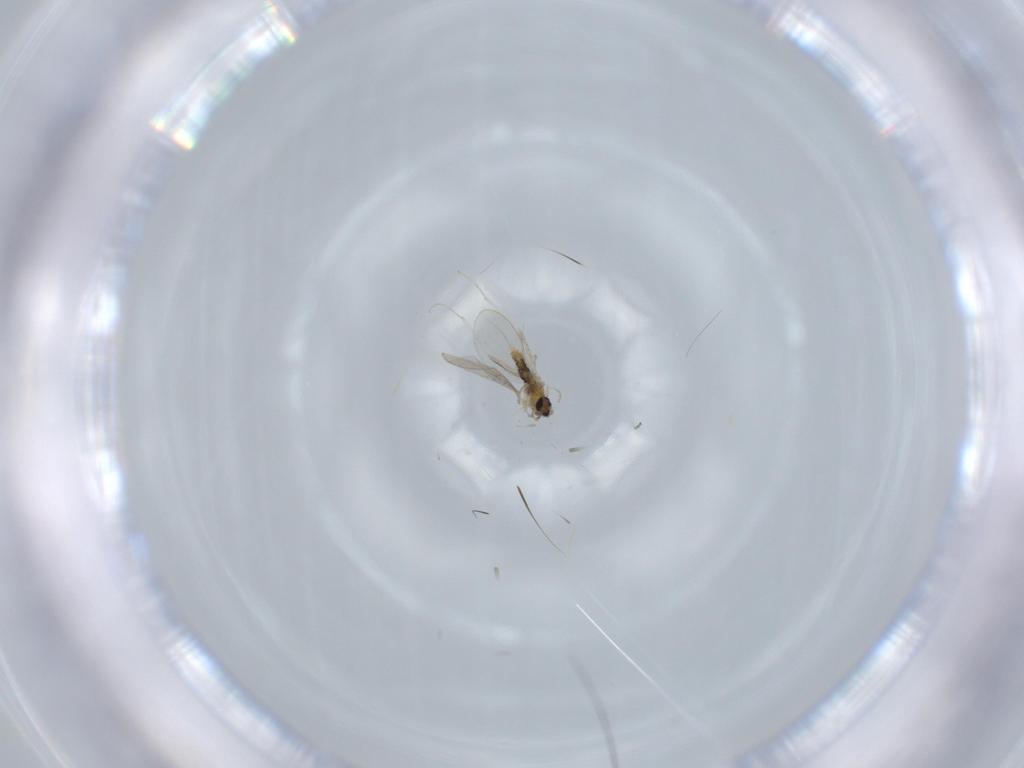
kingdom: Animalia
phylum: Arthropoda
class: Insecta
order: Diptera
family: Cecidomyiidae
